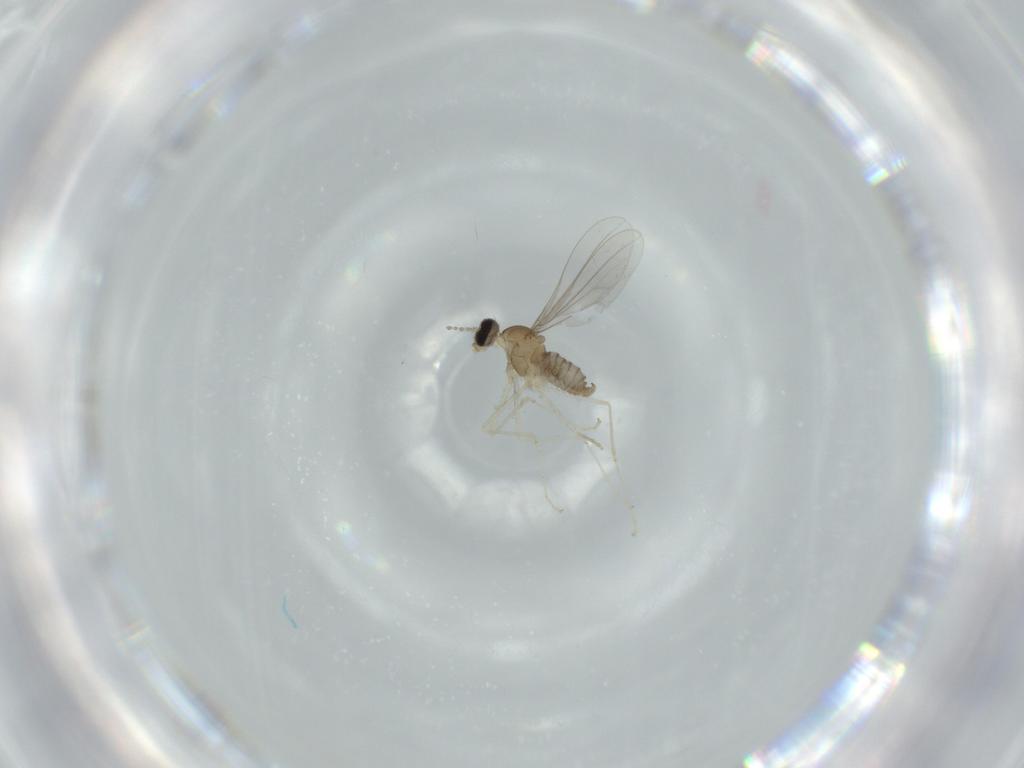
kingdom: Animalia
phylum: Arthropoda
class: Insecta
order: Diptera
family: Cecidomyiidae
